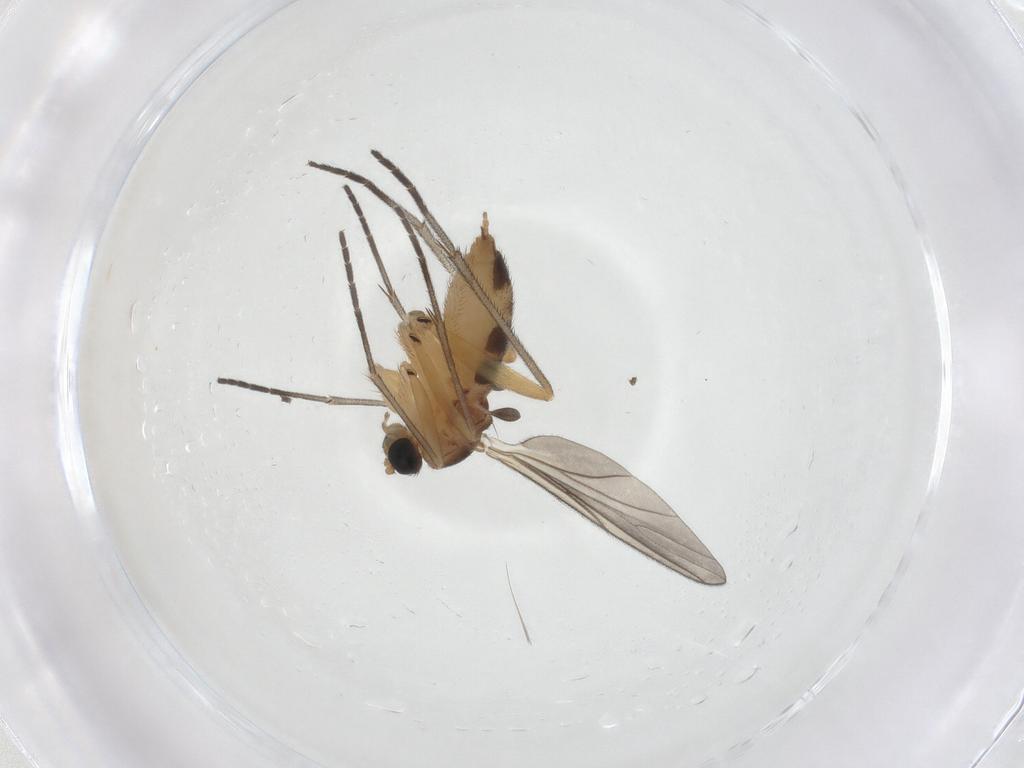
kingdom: Animalia
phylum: Arthropoda
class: Insecta
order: Diptera
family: Sciaridae
